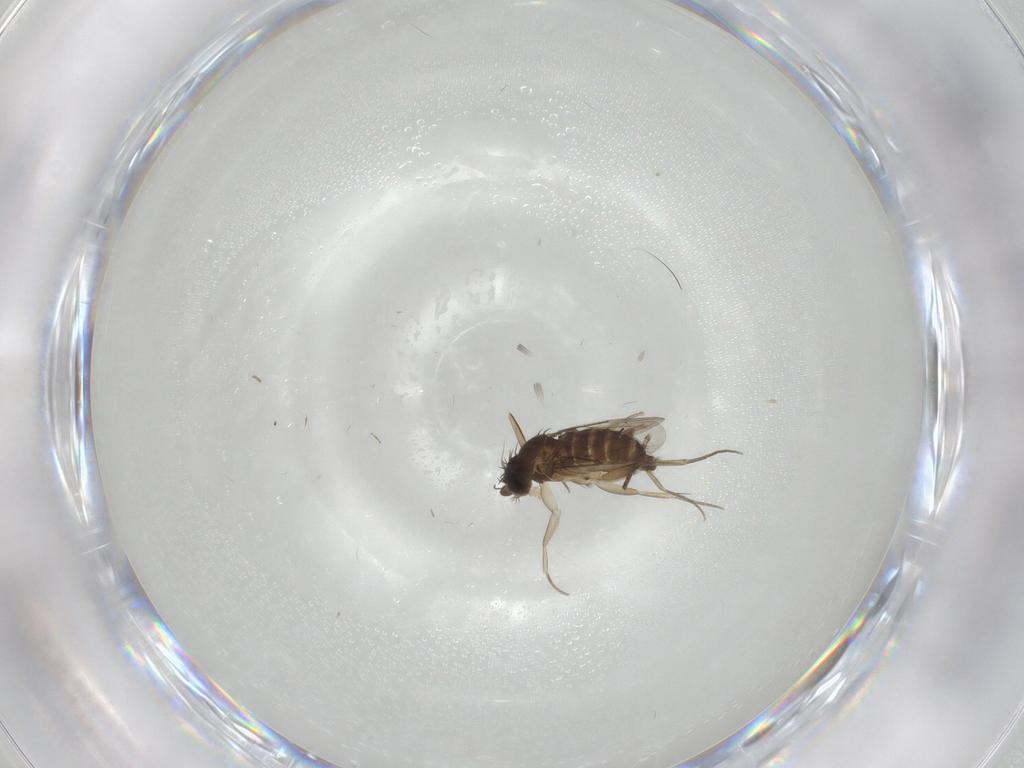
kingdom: Animalia
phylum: Arthropoda
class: Insecta
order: Diptera
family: Phoridae
